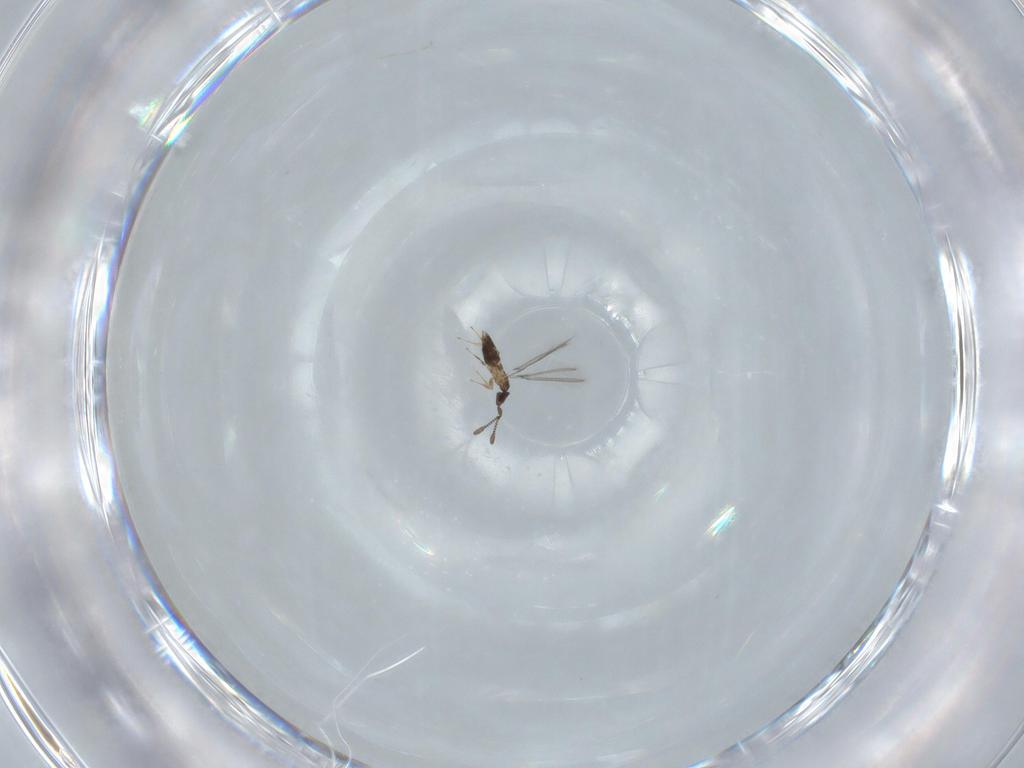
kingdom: Animalia
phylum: Arthropoda
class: Insecta
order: Hymenoptera
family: Mymaridae
